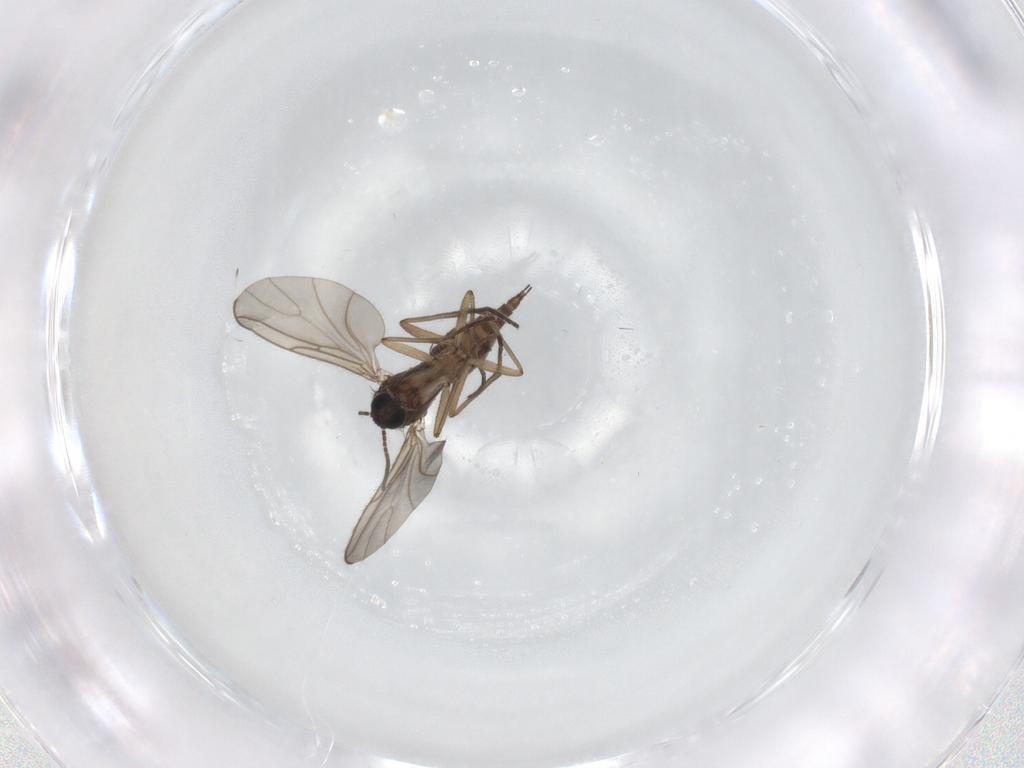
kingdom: Animalia
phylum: Arthropoda
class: Insecta
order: Diptera
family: Sciaridae
